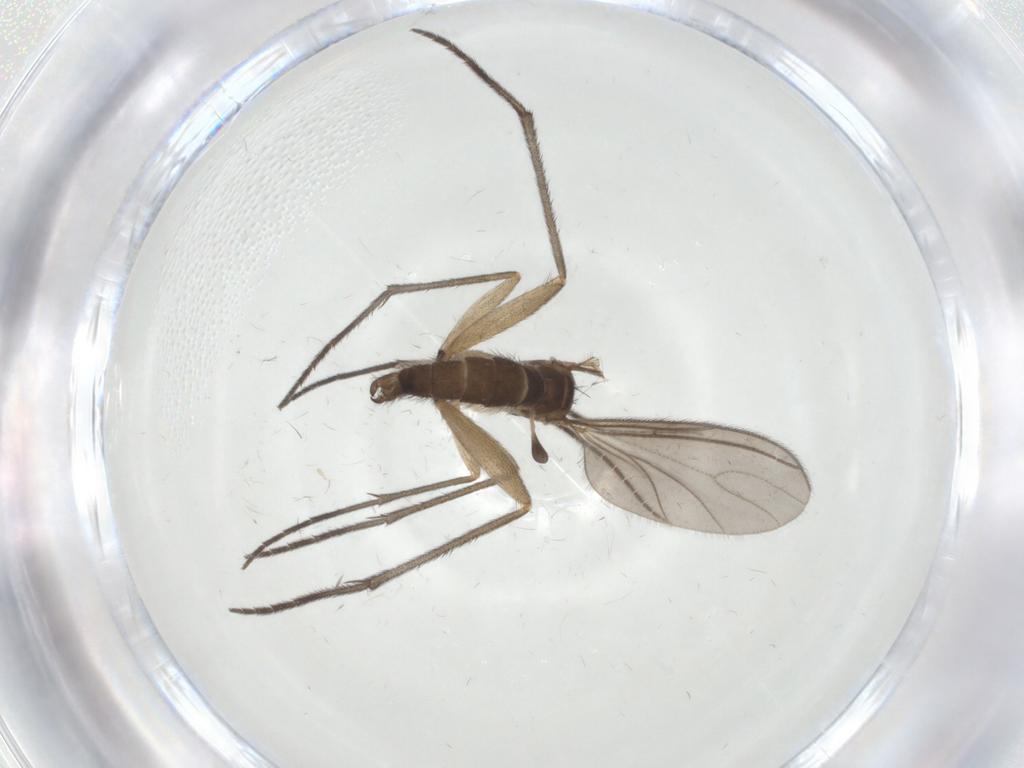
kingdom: Animalia
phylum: Arthropoda
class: Insecta
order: Diptera
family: Sciaridae
